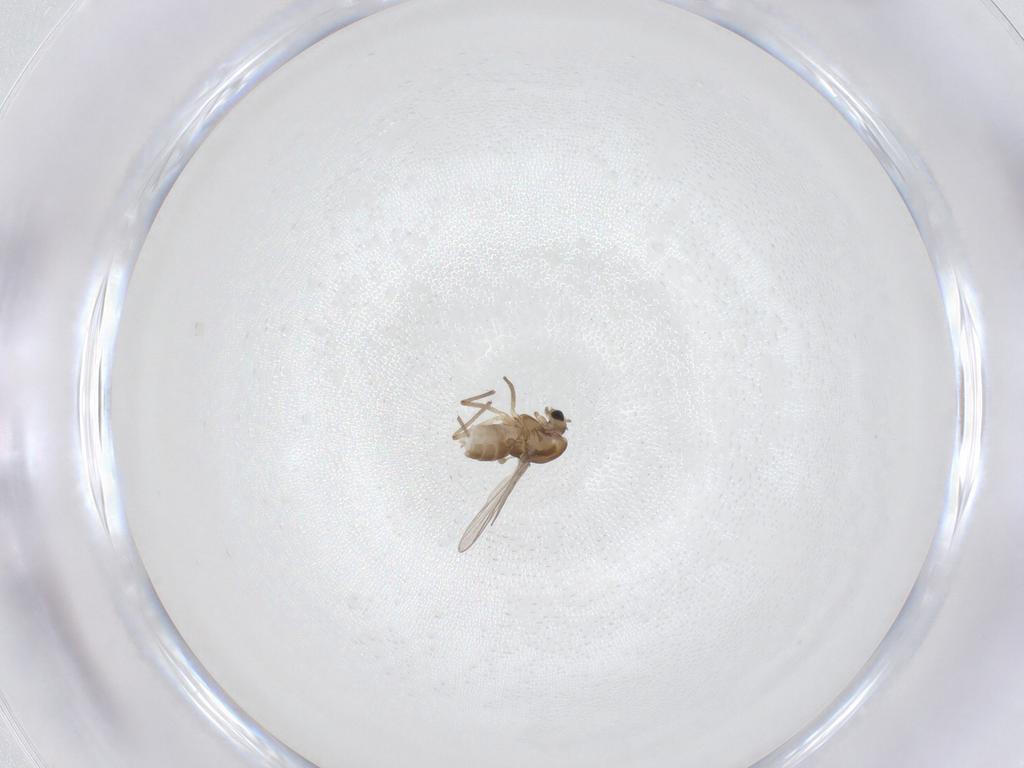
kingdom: Animalia
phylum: Arthropoda
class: Insecta
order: Diptera
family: Chironomidae
